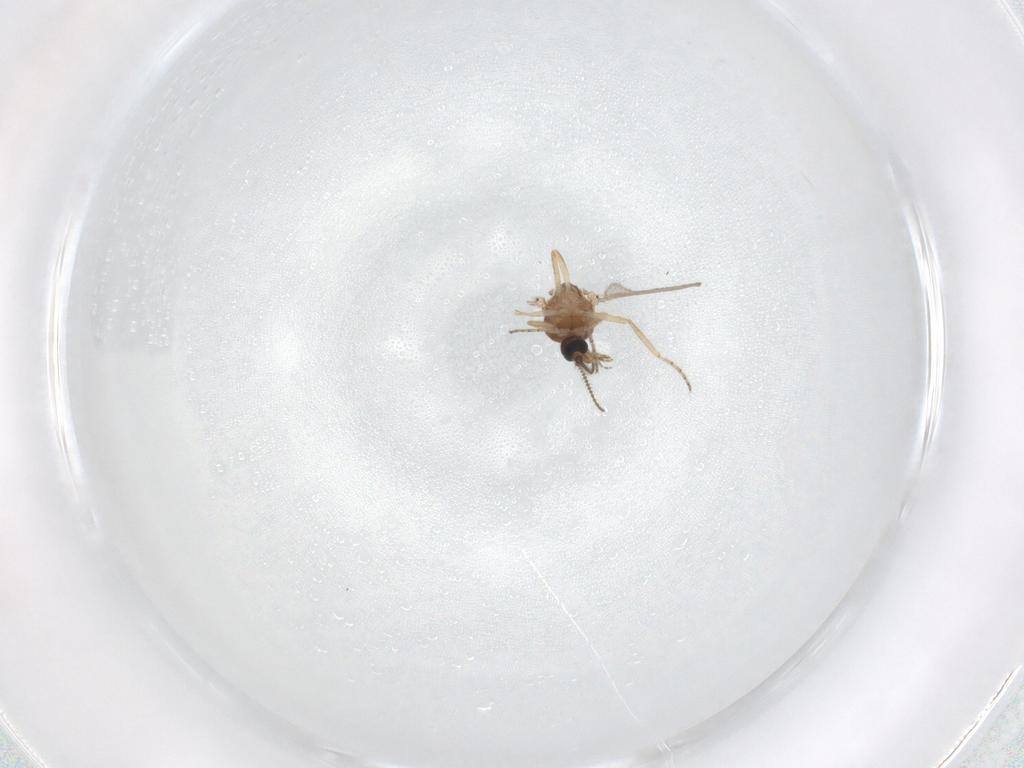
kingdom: Animalia
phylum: Arthropoda
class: Insecta
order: Diptera
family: Ceratopogonidae
